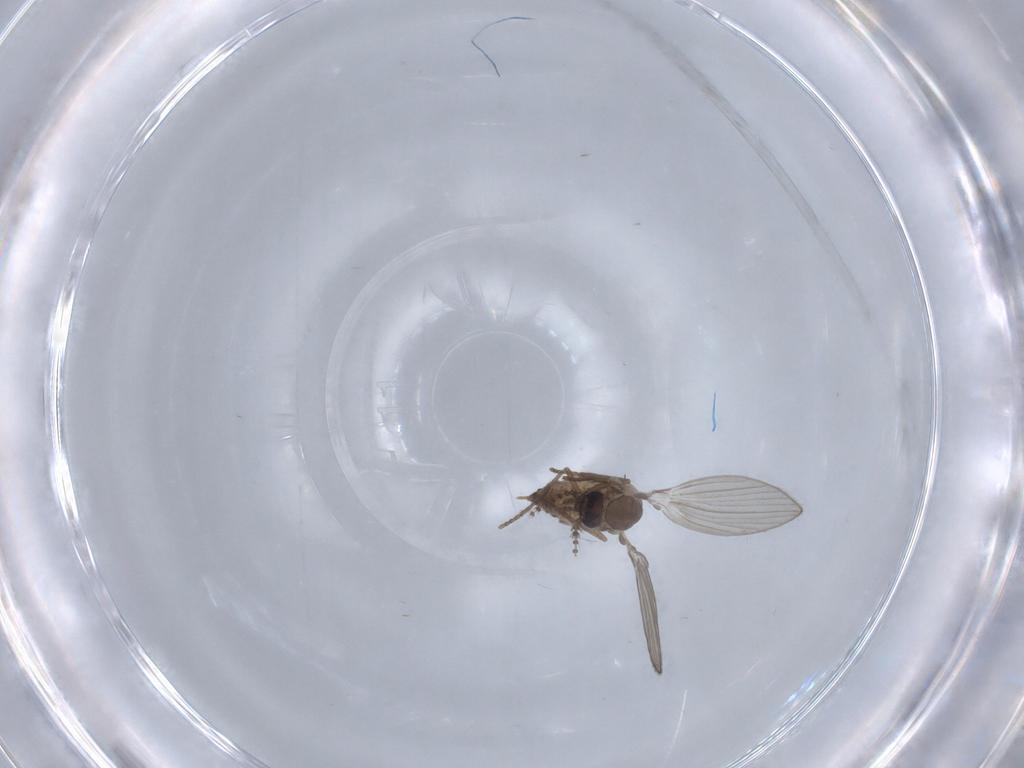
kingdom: Animalia
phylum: Arthropoda
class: Insecta
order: Diptera
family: Psychodidae
